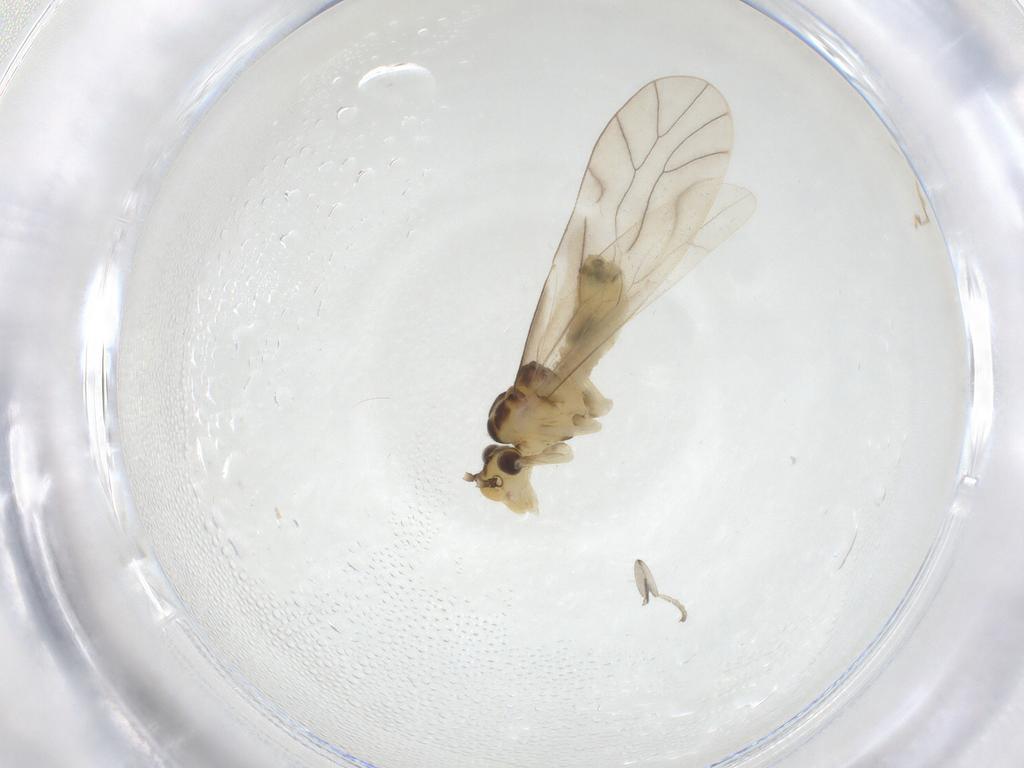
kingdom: Animalia
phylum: Arthropoda
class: Insecta
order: Psocodea
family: Caeciliusidae
